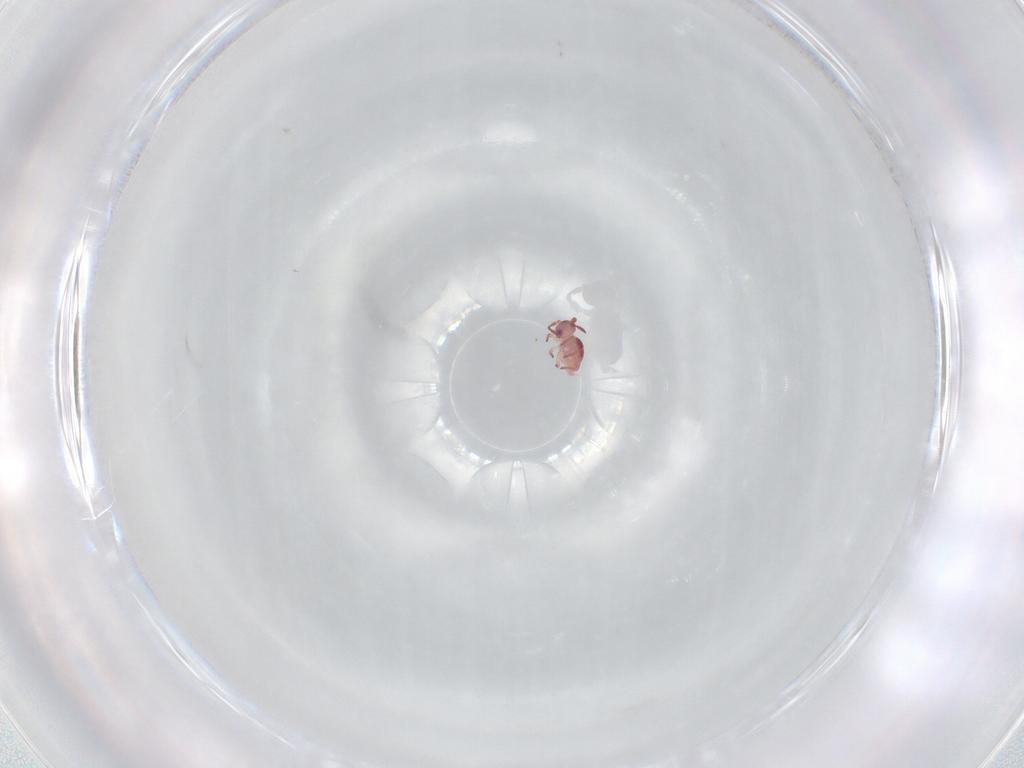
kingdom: Animalia
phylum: Arthropoda
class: Collembola
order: Symphypleona
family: Sminthurididae
